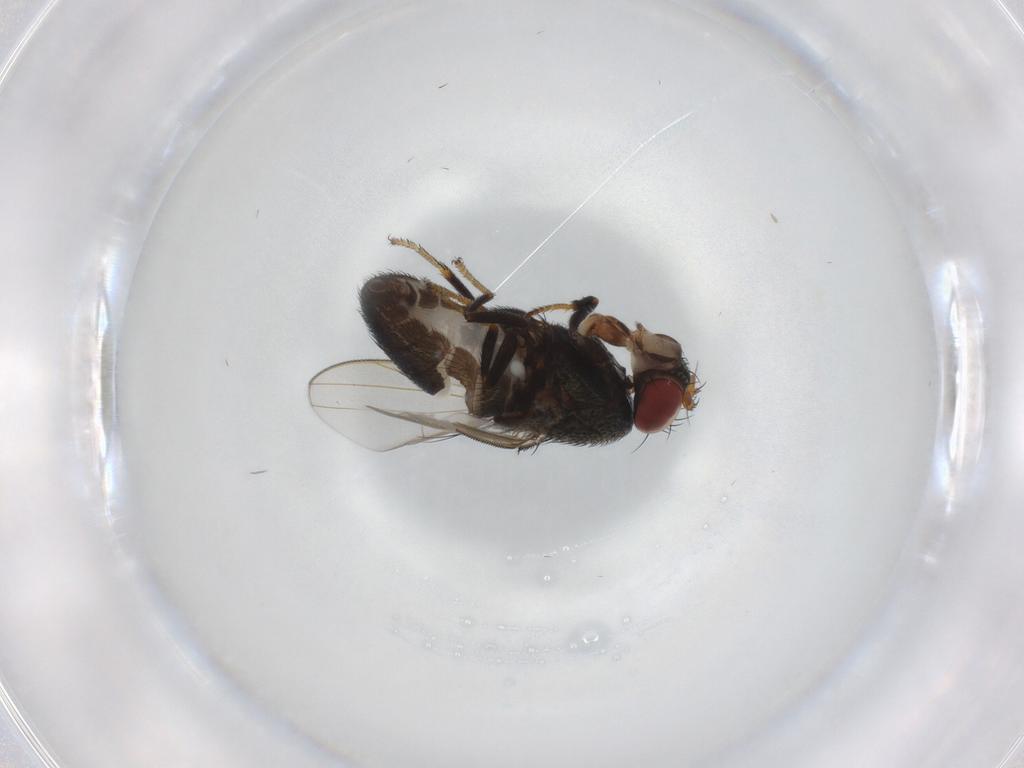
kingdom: Animalia
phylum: Arthropoda
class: Insecta
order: Diptera
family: Ephydridae
